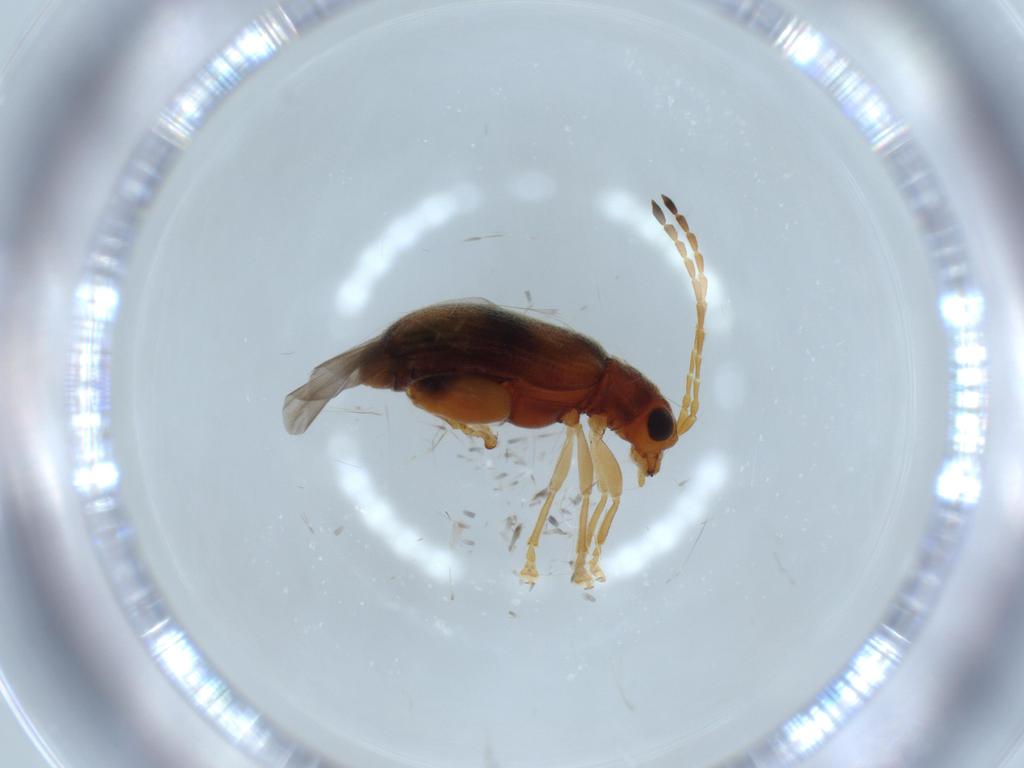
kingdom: Animalia
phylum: Arthropoda
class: Insecta
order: Coleoptera
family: Chrysomelidae
